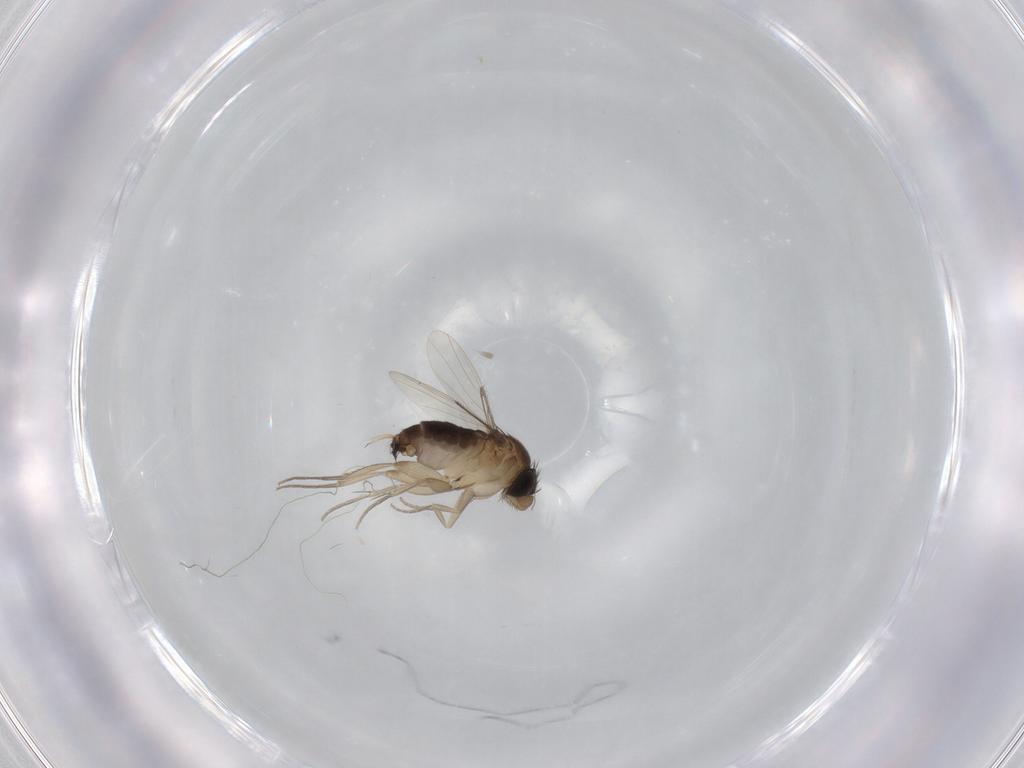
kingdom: Animalia
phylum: Arthropoda
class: Insecta
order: Diptera
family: Phoridae
